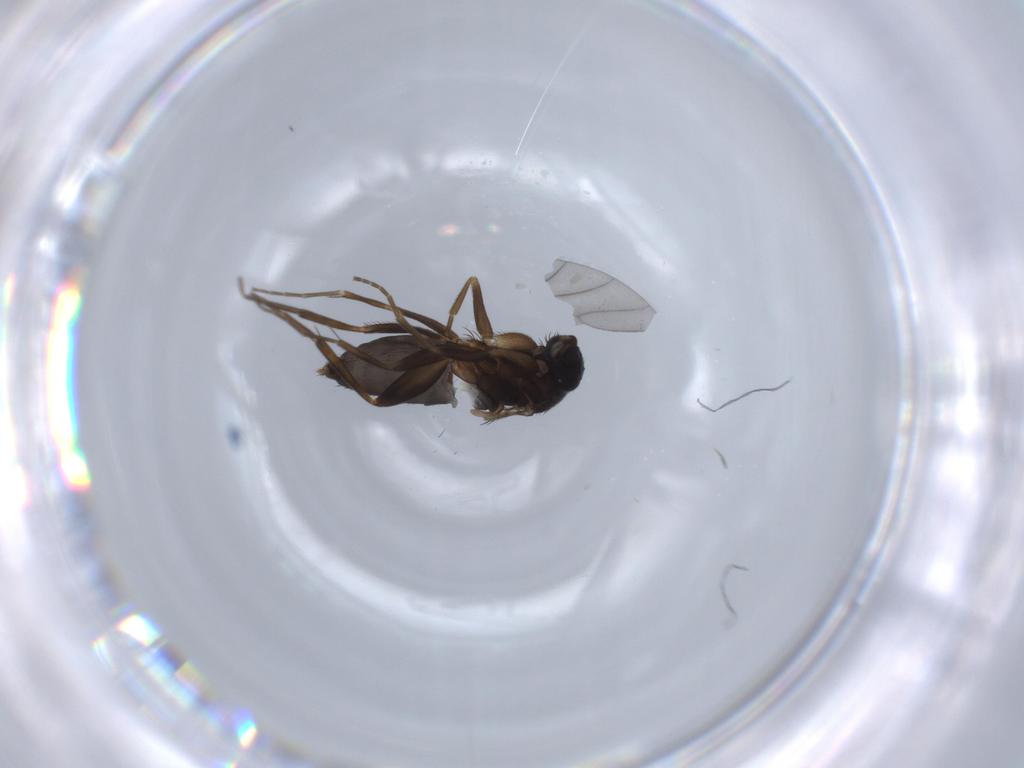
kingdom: Animalia
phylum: Arthropoda
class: Insecta
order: Diptera
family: Phoridae
